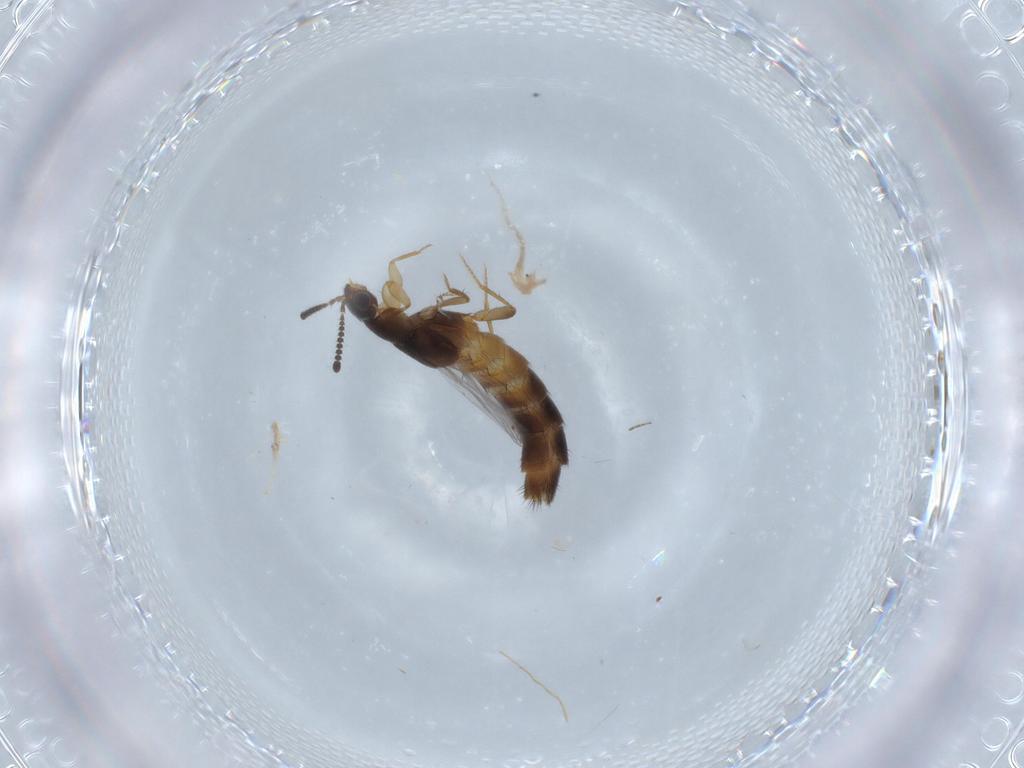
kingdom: Animalia
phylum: Arthropoda
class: Insecta
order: Coleoptera
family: Staphylinidae
